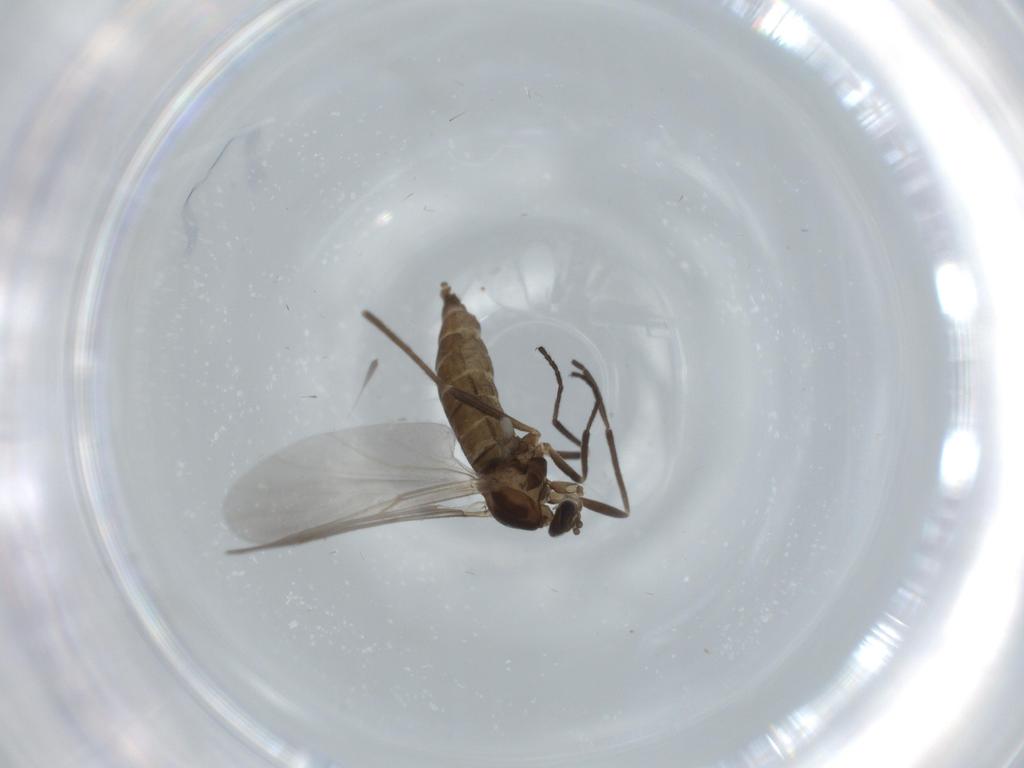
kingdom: Animalia
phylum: Arthropoda
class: Insecta
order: Diptera
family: Cecidomyiidae
